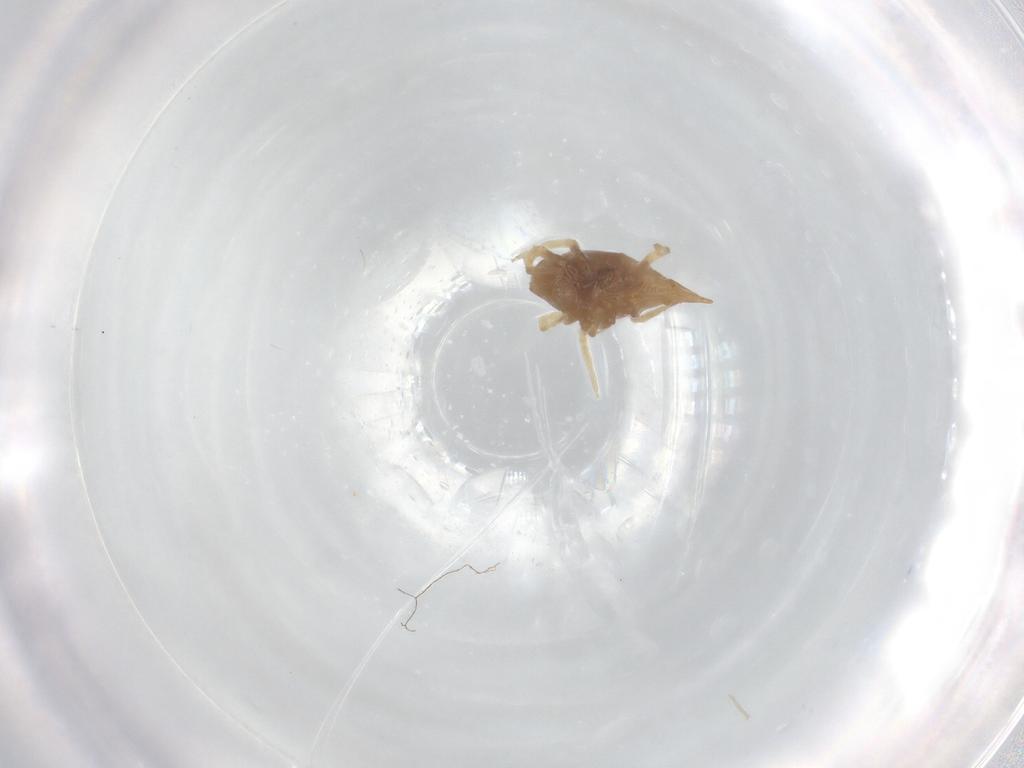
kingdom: Animalia
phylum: Arthropoda
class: Arachnida
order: Trombidiformes
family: Bdellidae
